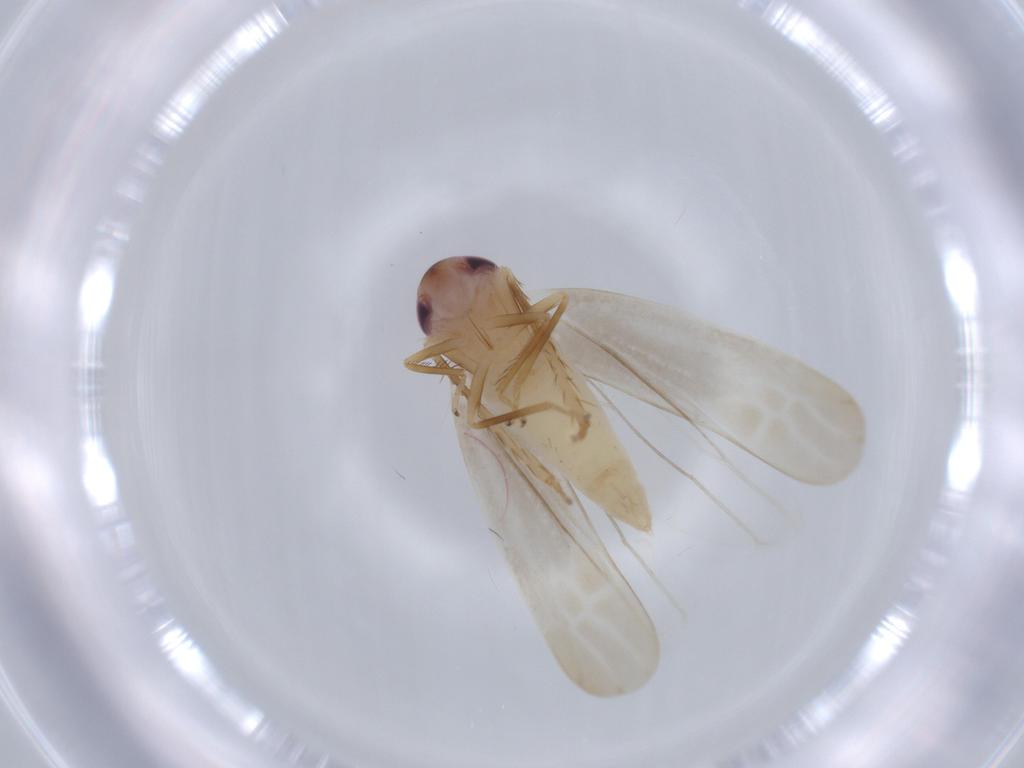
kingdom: Animalia
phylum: Arthropoda
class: Insecta
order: Hemiptera
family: Cicadellidae
